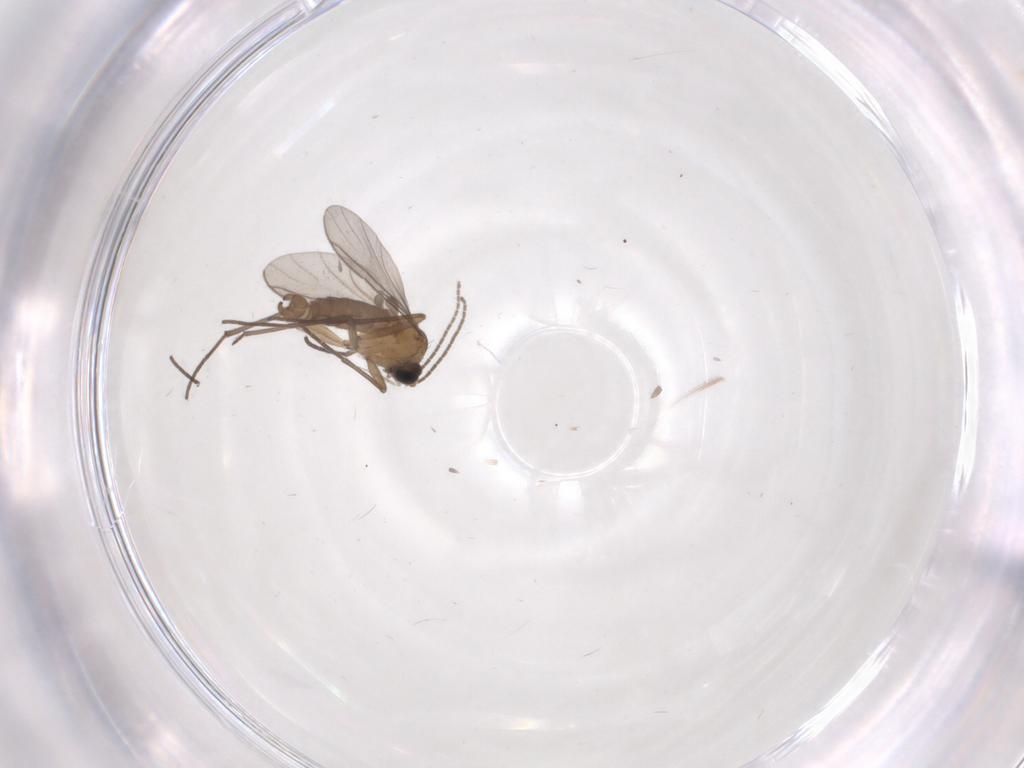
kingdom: Animalia
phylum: Arthropoda
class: Insecta
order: Diptera
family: Sciaridae
